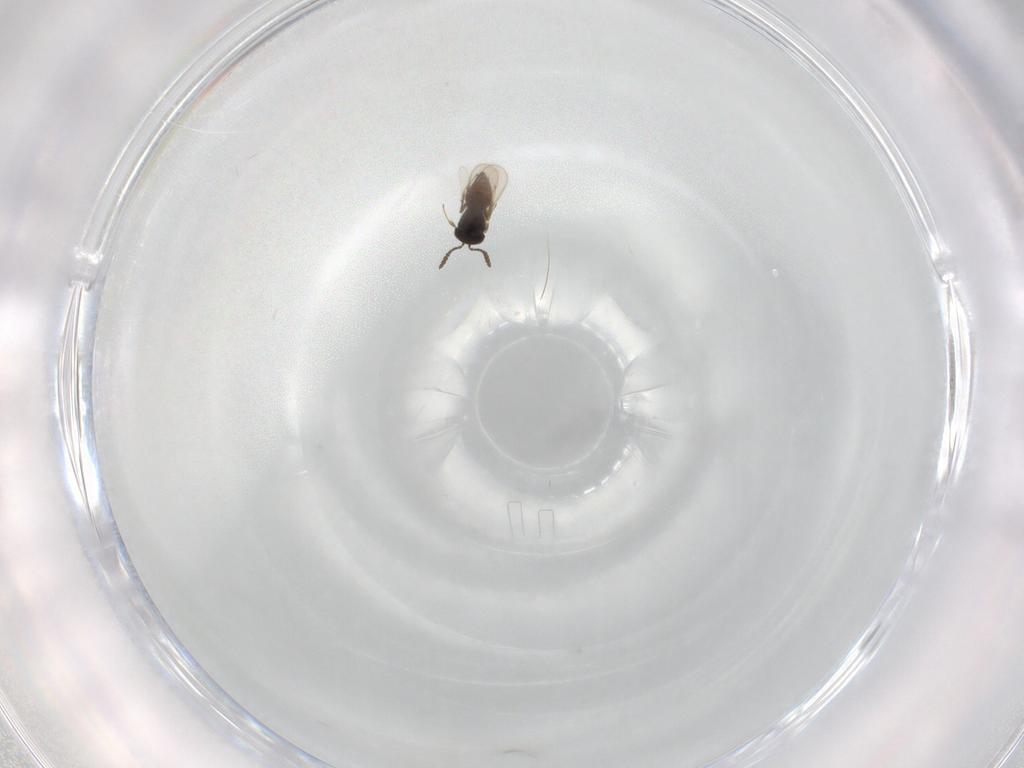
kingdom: Animalia
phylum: Arthropoda
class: Insecta
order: Hymenoptera
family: Scelionidae
